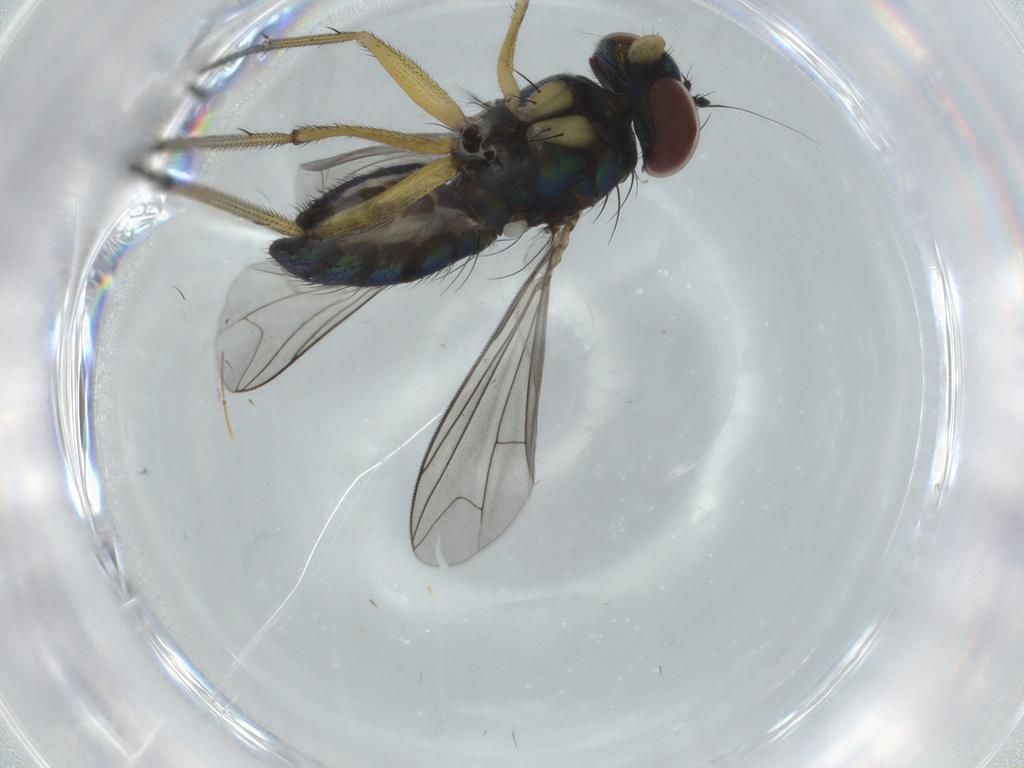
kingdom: Animalia
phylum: Arthropoda
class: Insecta
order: Diptera
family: Dolichopodidae
